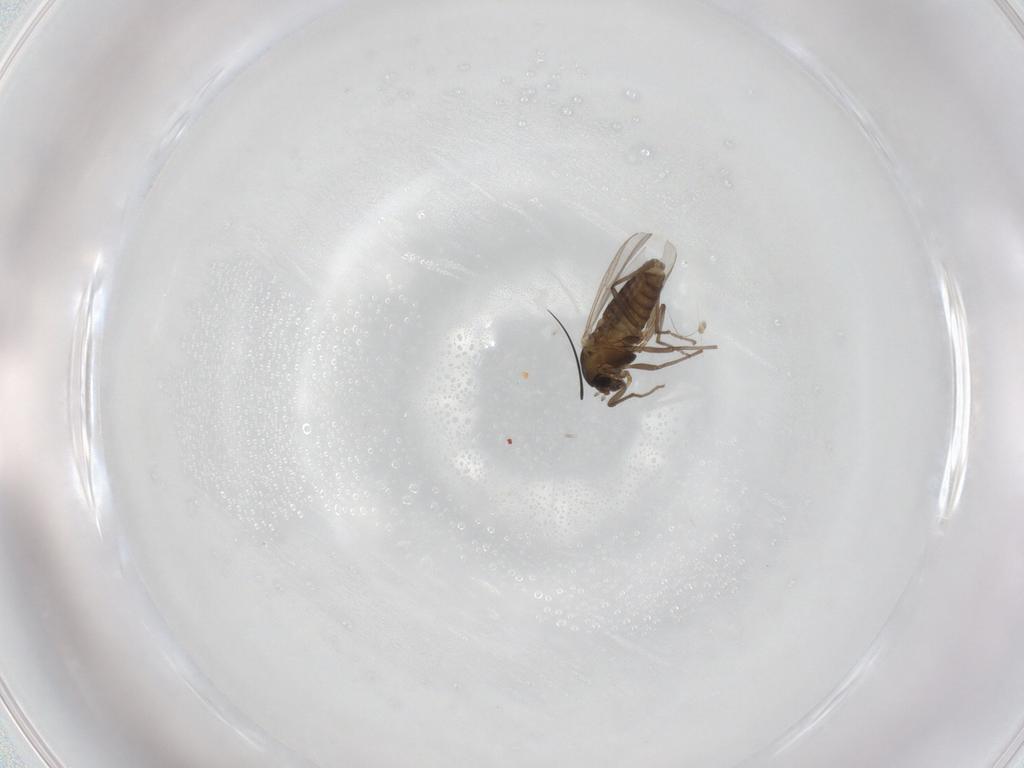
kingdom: Animalia
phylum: Arthropoda
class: Insecta
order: Diptera
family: Chironomidae
